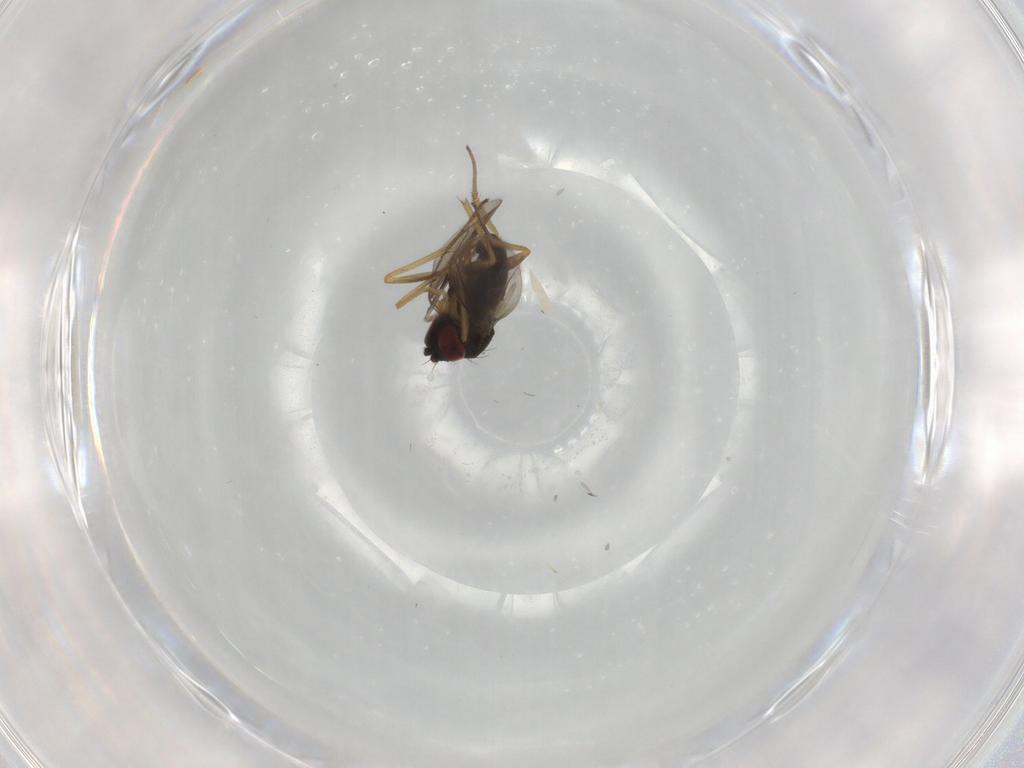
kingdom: Animalia
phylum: Arthropoda
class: Insecta
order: Diptera
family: Dolichopodidae
